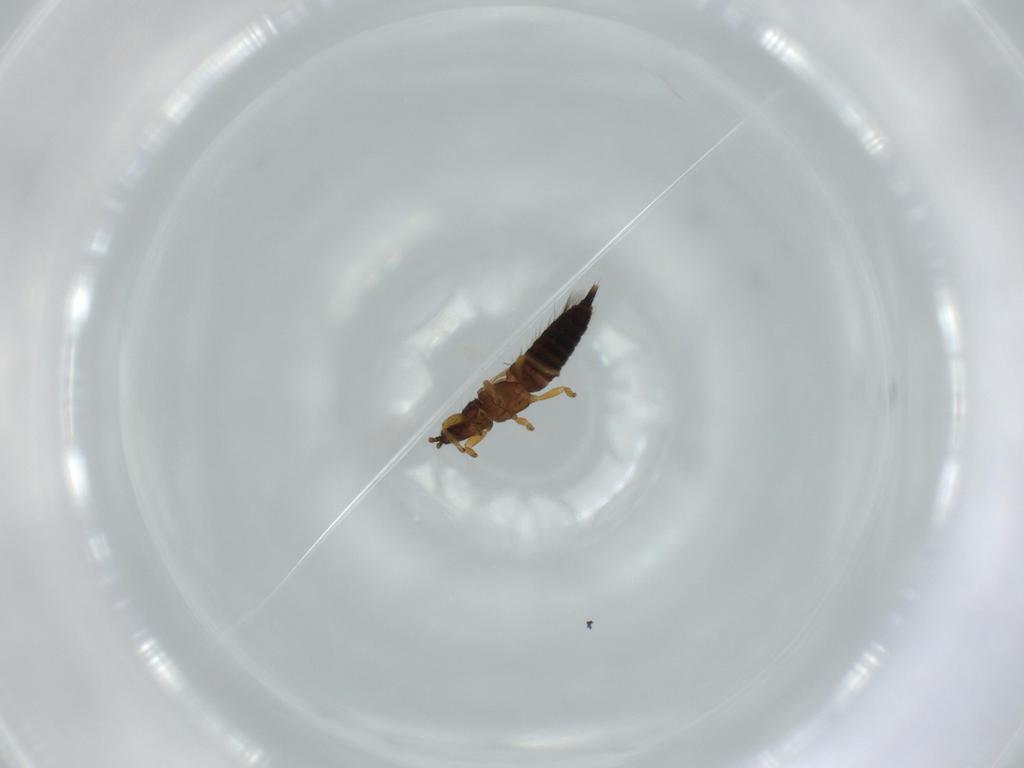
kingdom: Animalia
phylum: Arthropoda
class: Insecta
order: Thysanoptera
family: Phlaeothripidae
